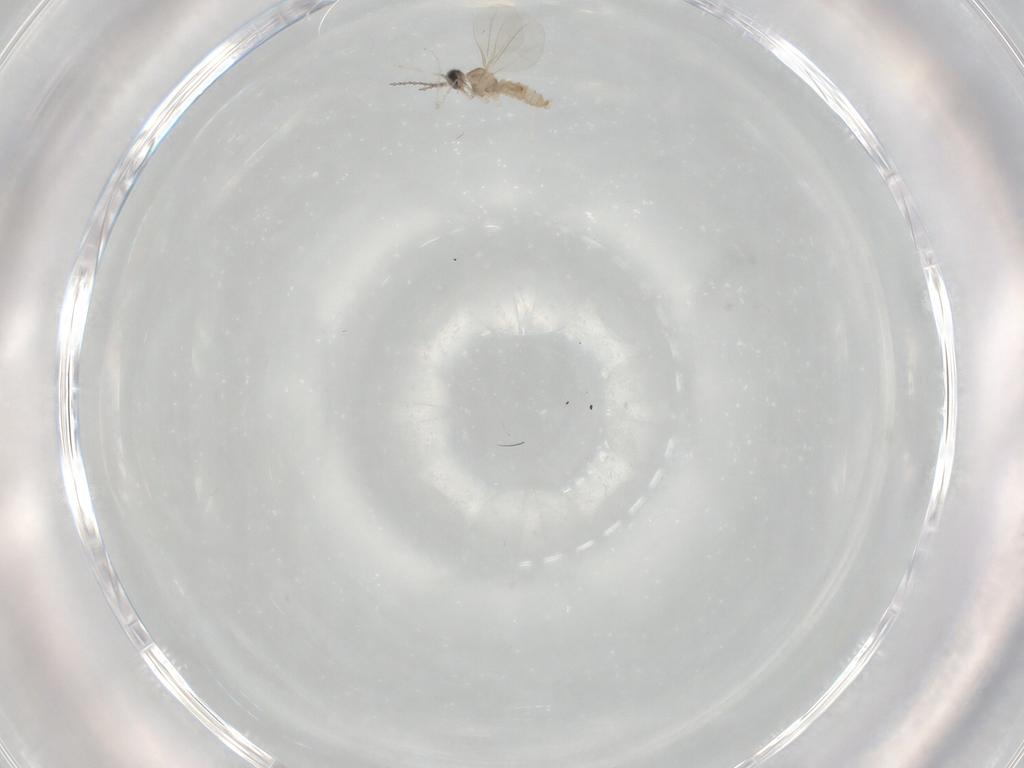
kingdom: Animalia
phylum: Arthropoda
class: Insecta
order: Diptera
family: Cecidomyiidae
